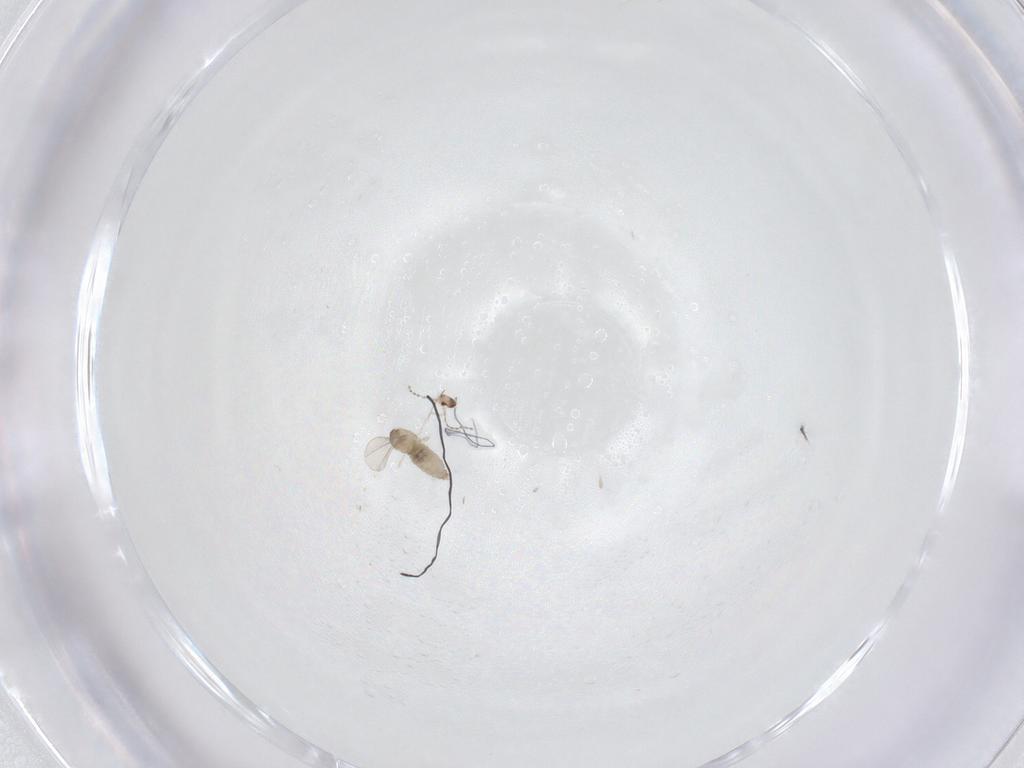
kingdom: Animalia
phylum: Arthropoda
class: Insecta
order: Diptera
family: Cecidomyiidae
